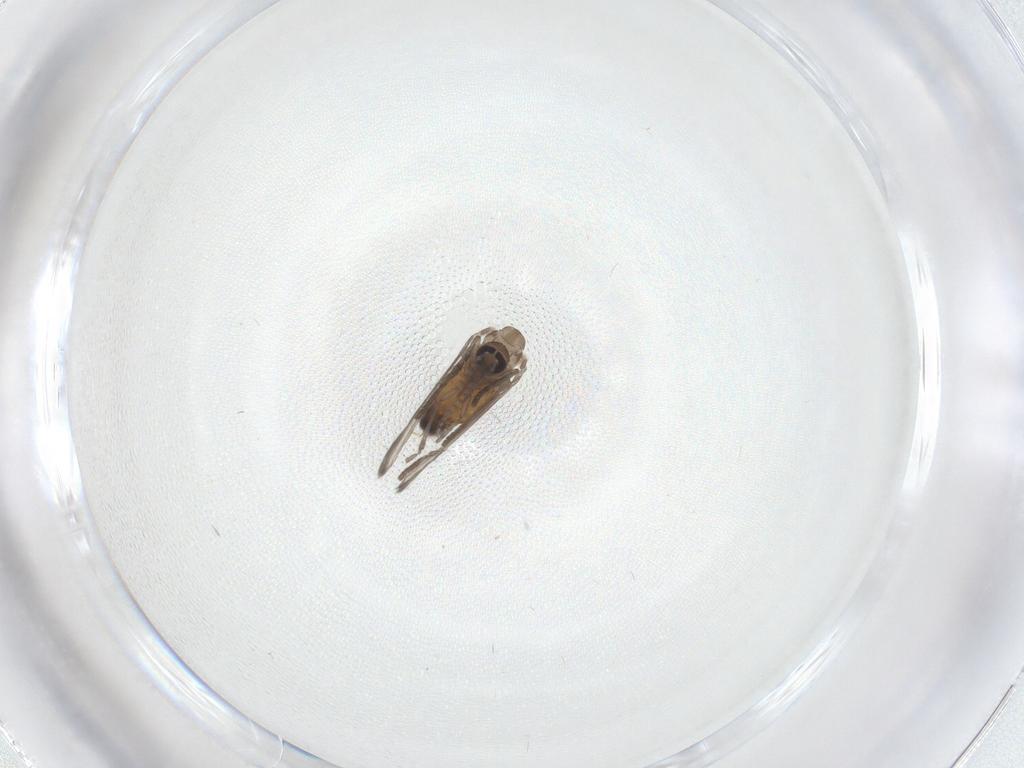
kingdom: Animalia
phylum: Arthropoda
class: Insecta
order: Diptera
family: Psychodidae
